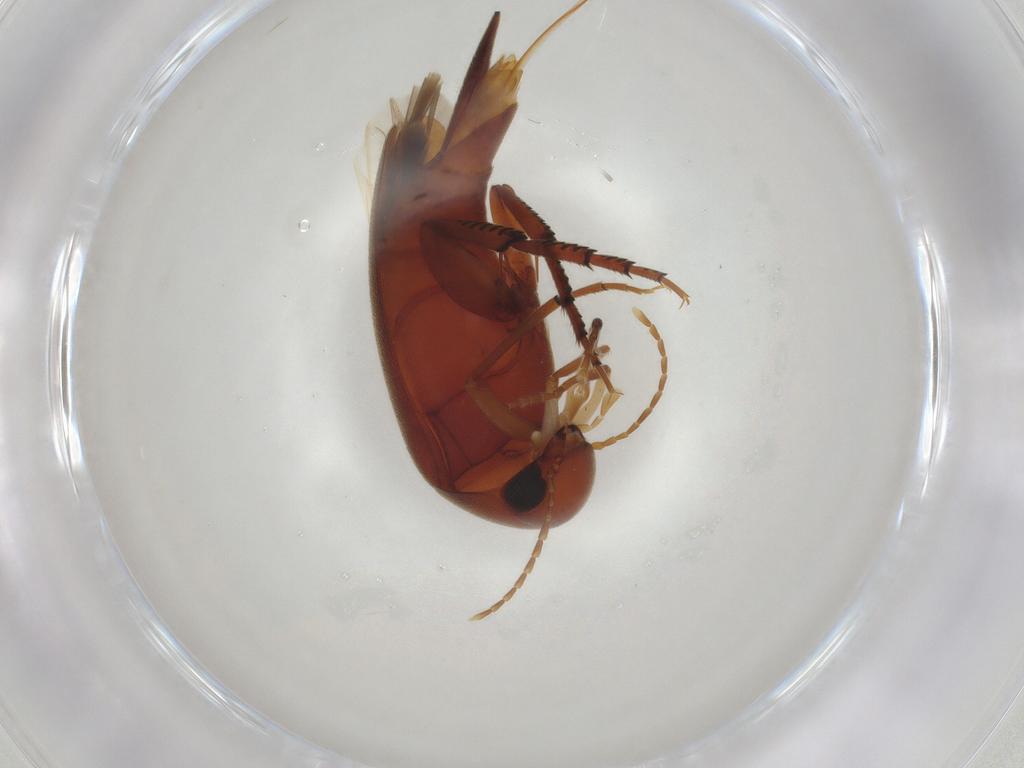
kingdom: Animalia
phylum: Arthropoda
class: Insecta
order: Coleoptera
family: Mordellidae
